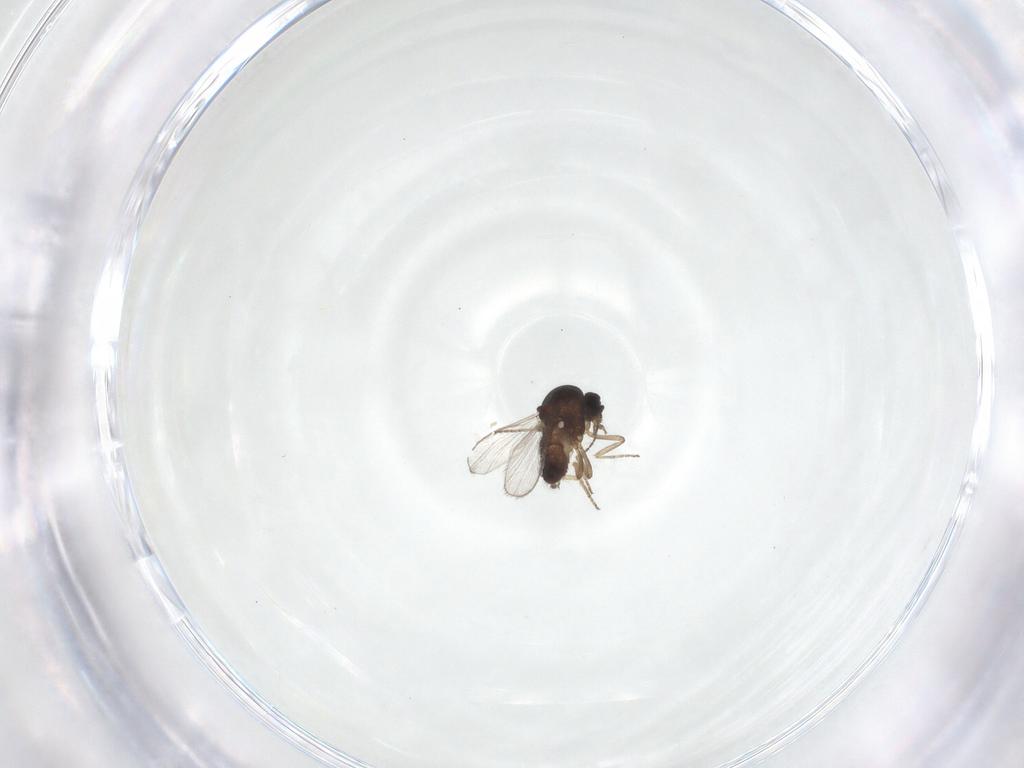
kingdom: Animalia
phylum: Arthropoda
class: Insecta
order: Diptera
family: Ceratopogonidae
